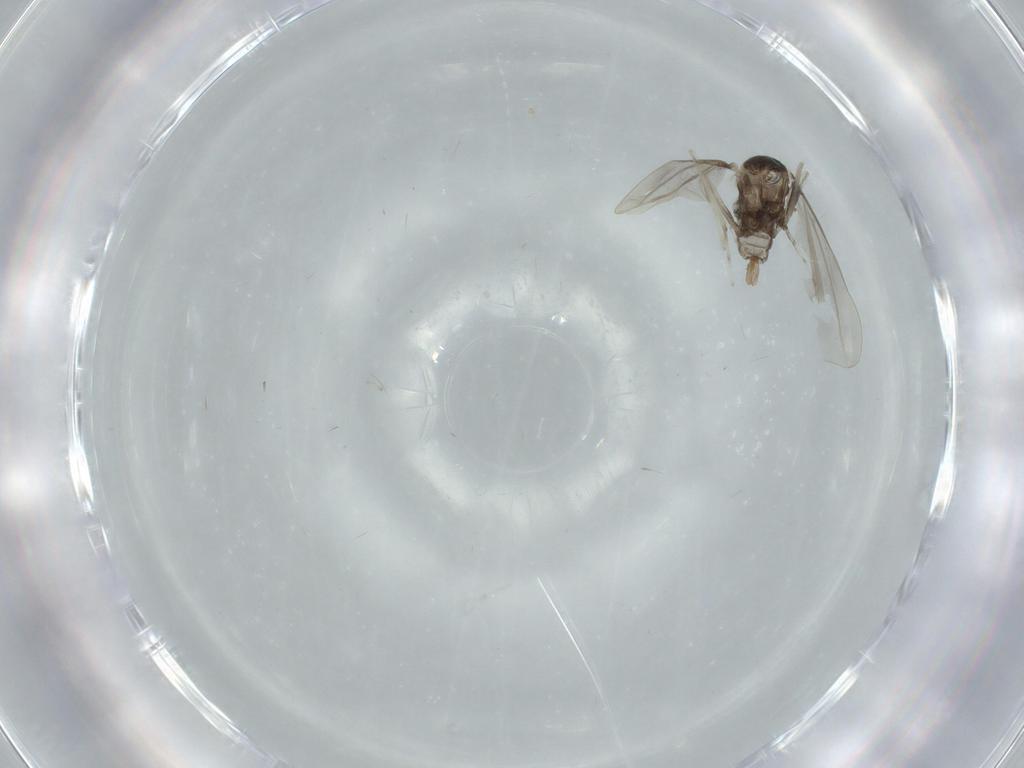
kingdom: Animalia
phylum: Arthropoda
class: Insecta
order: Diptera
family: Cecidomyiidae
